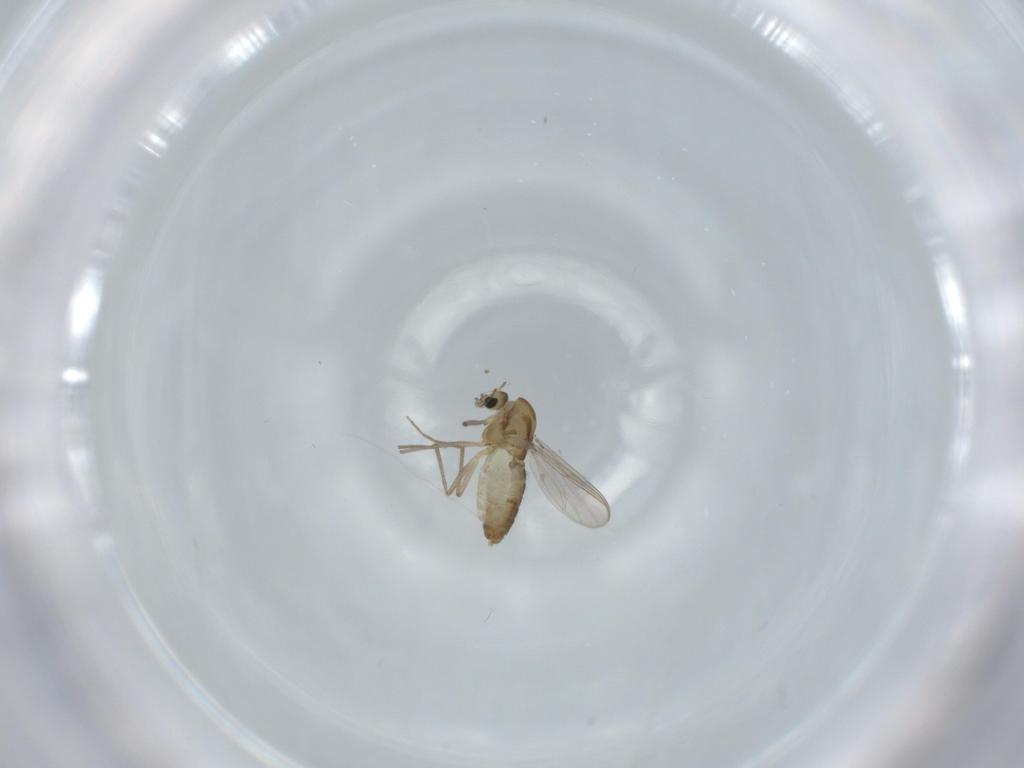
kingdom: Animalia
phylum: Arthropoda
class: Insecta
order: Diptera
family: Chironomidae
